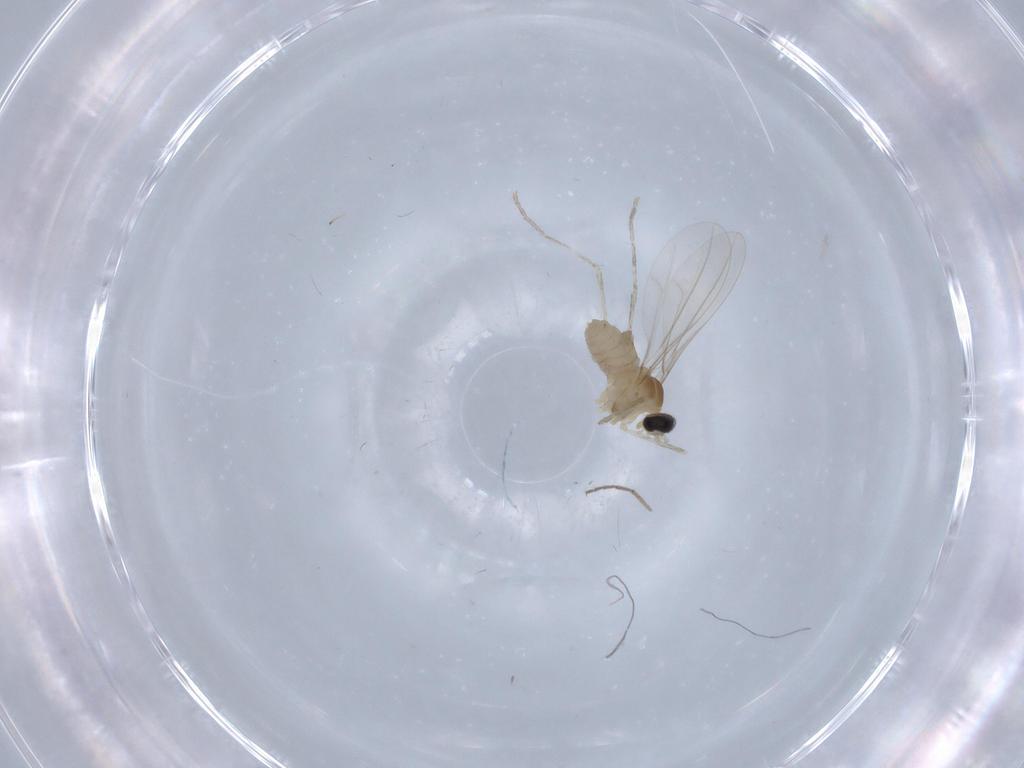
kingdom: Animalia
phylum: Arthropoda
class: Insecta
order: Diptera
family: Cecidomyiidae
